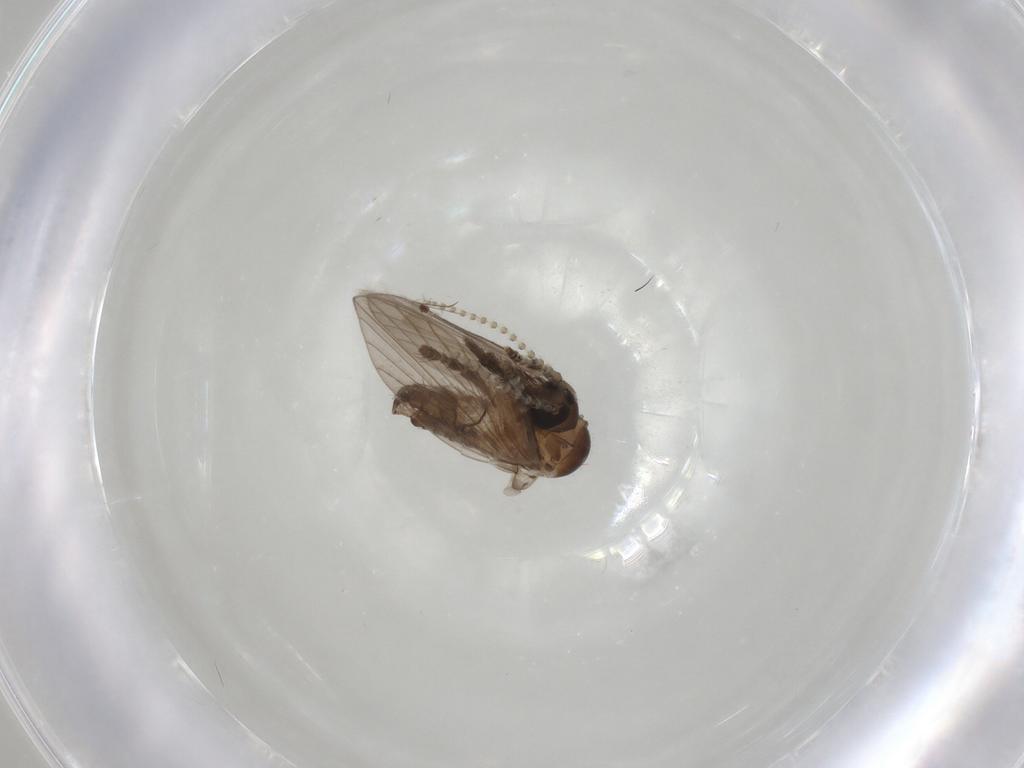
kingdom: Animalia
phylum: Arthropoda
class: Insecta
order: Diptera
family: Psychodidae
